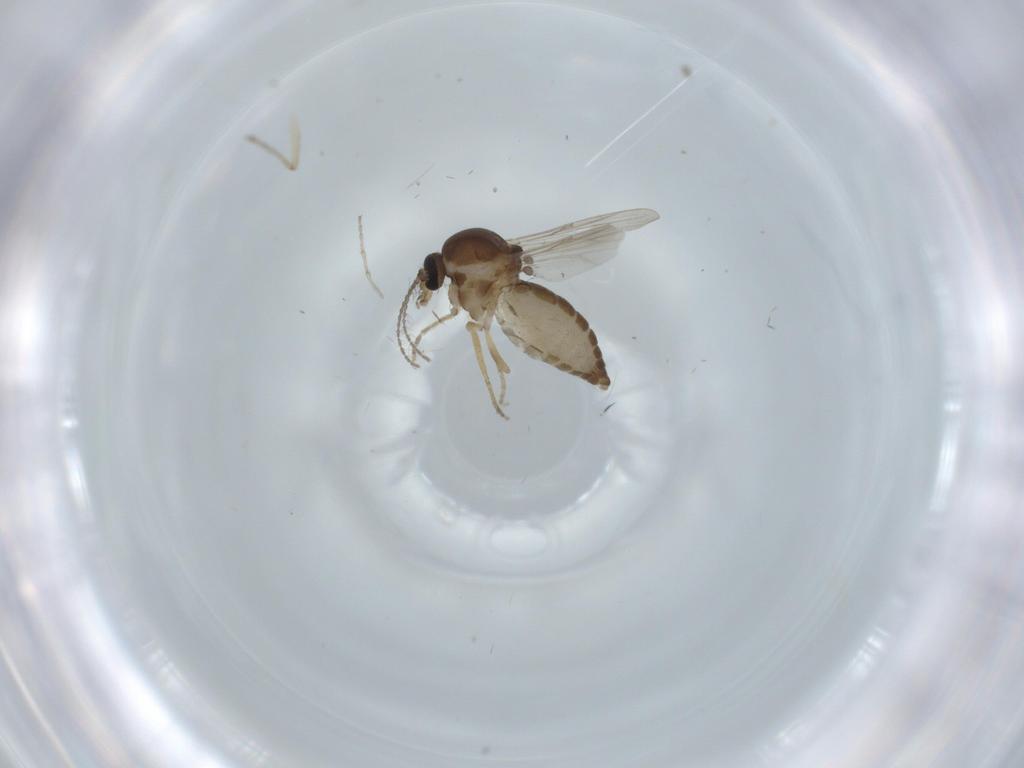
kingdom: Animalia
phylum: Arthropoda
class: Insecta
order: Diptera
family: Ceratopogonidae
